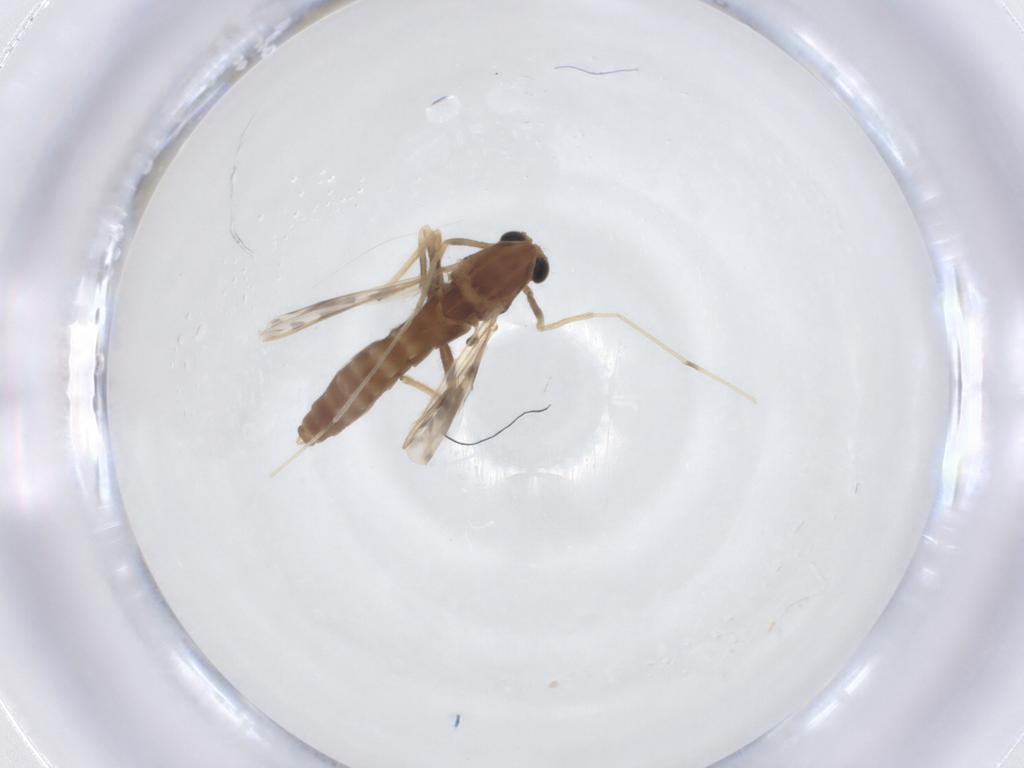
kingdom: Animalia
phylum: Arthropoda
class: Insecta
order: Diptera
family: Chironomidae
